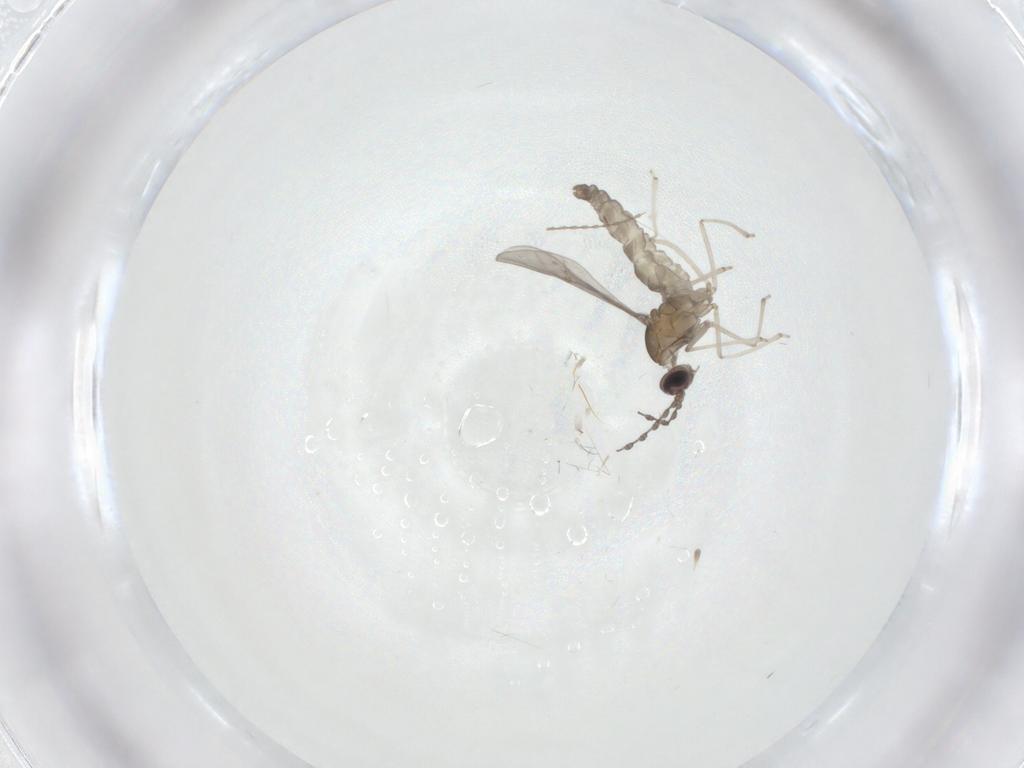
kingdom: Animalia
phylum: Arthropoda
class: Insecta
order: Diptera
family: Cecidomyiidae
